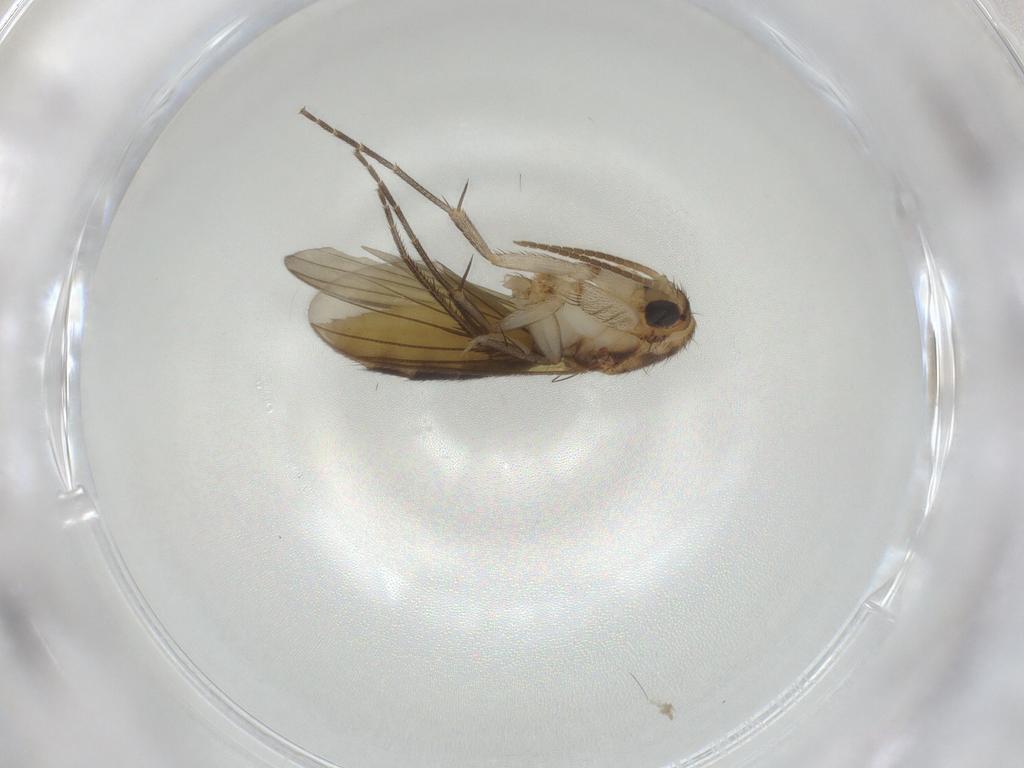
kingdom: Animalia
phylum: Arthropoda
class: Insecta
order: Diptera
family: Phoridae
